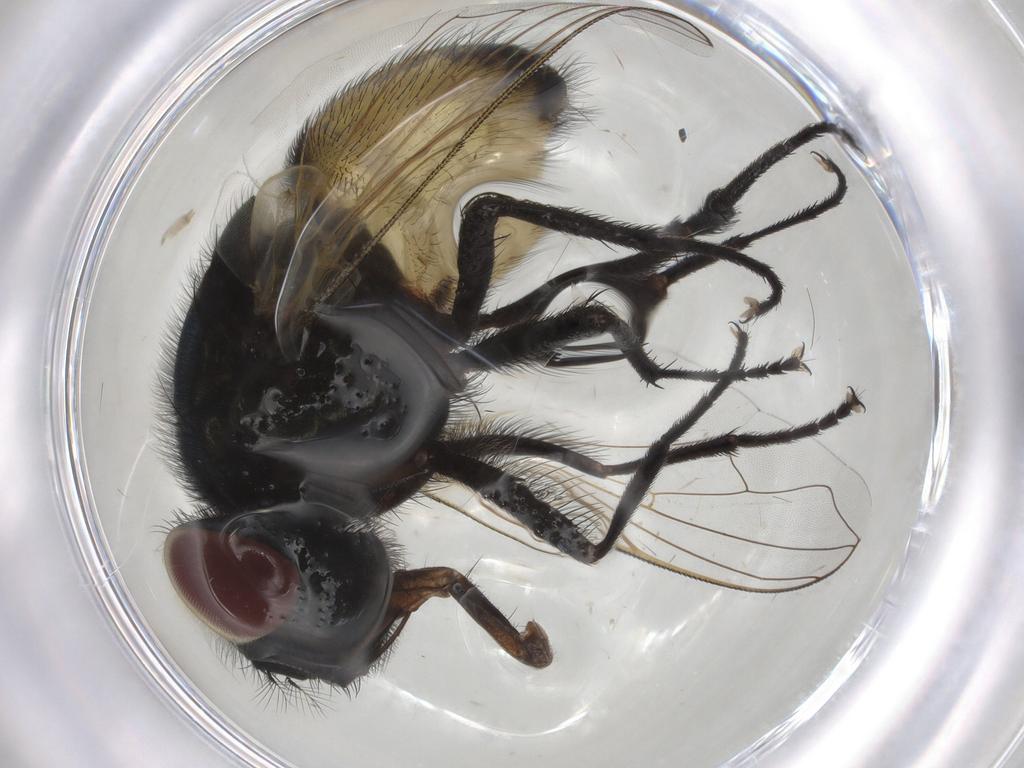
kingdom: Animalia
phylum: Arthropoda
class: Insecta
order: Diptera
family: Muscidae
